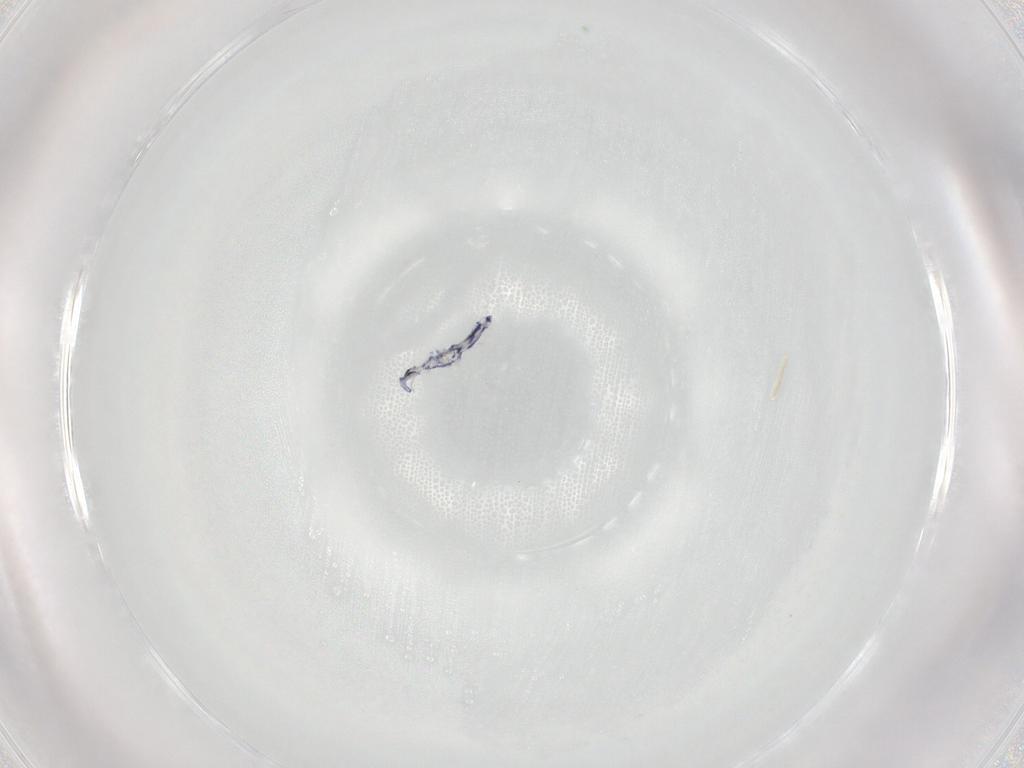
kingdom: Animalia
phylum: Arthropoda
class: Collembola
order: Entomobryomorpha
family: Entomobryidae
